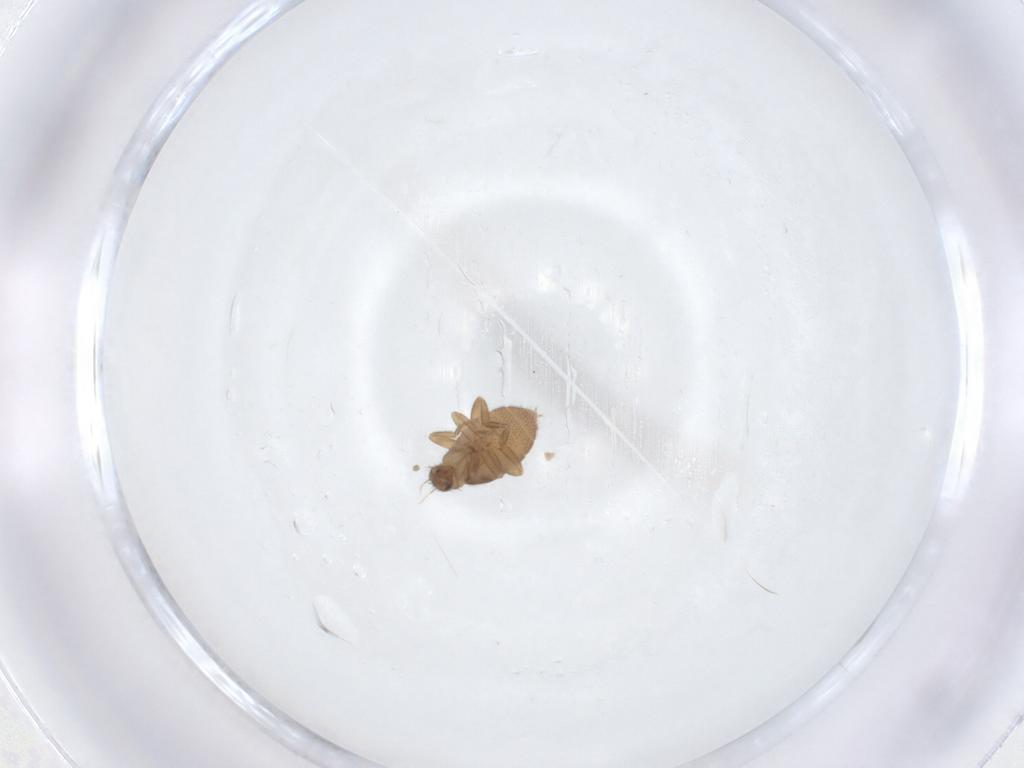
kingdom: Animalia
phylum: Arthropoda
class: Insecta
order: Diptera
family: Phoridae
